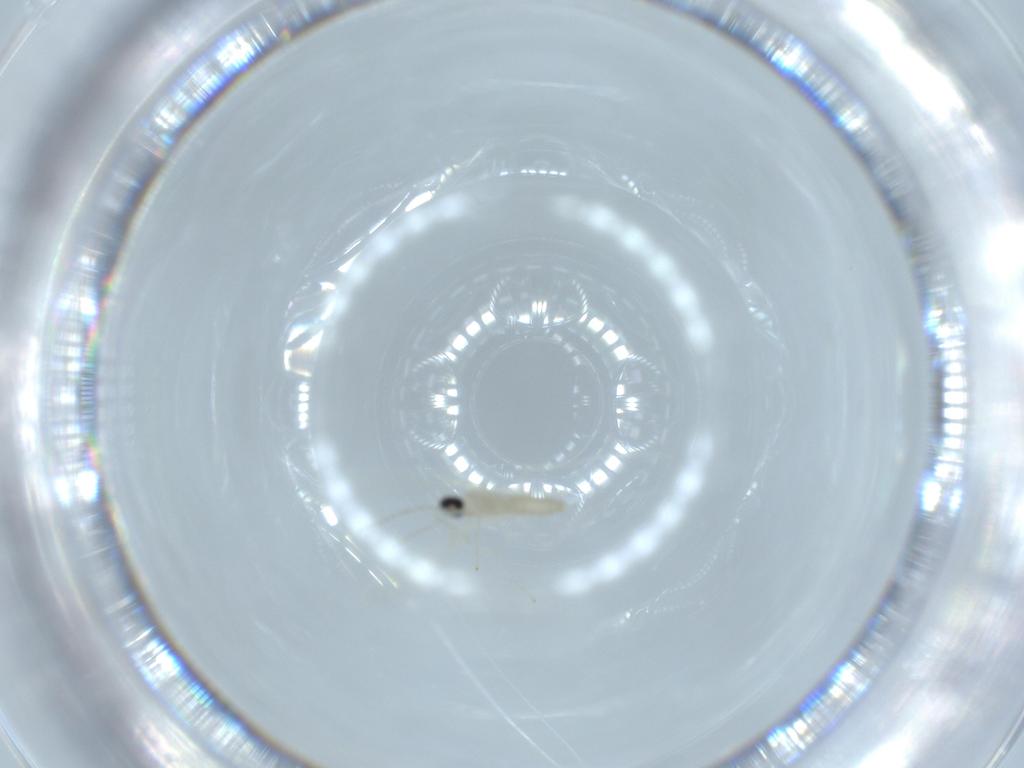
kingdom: Animalia
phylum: Arthropoda
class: Insecta
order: Diptera
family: Cecidomyiidae
